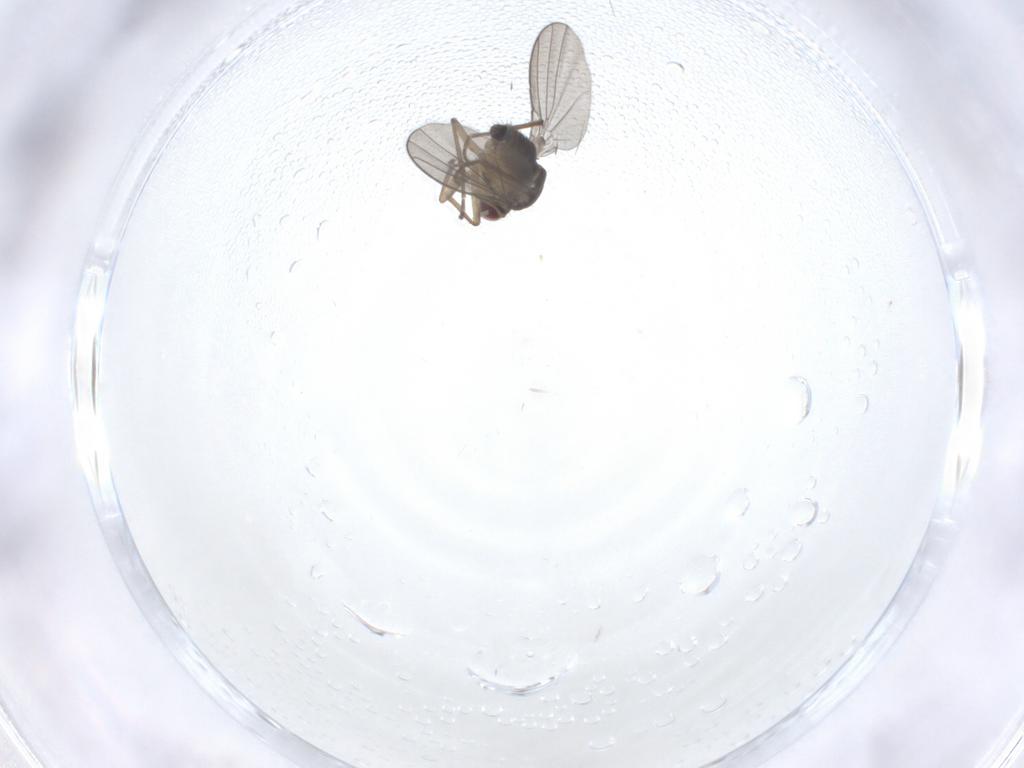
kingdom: Animalia
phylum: Arthropoda
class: Insecta
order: Diptera
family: Agromyzidae
